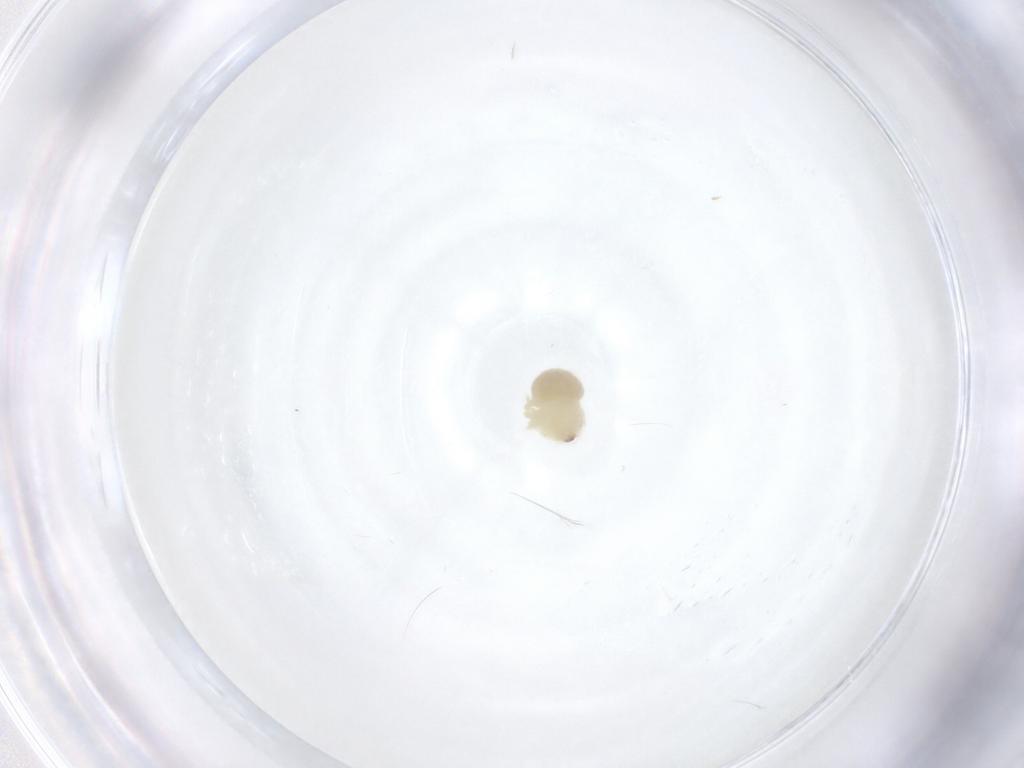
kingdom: Animalia
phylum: Arthropoda
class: Arachnida
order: Araneae
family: Pholcidae
